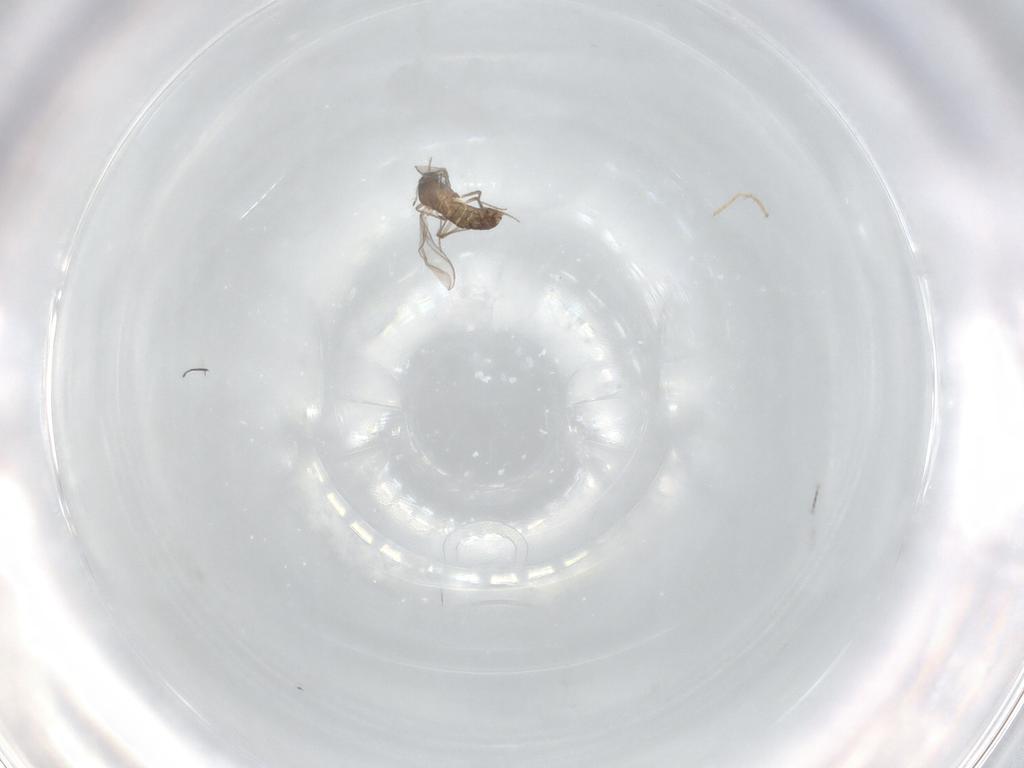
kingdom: Animalia
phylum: Arthropoda
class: Insecta
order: Diptera
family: Chironomidae
